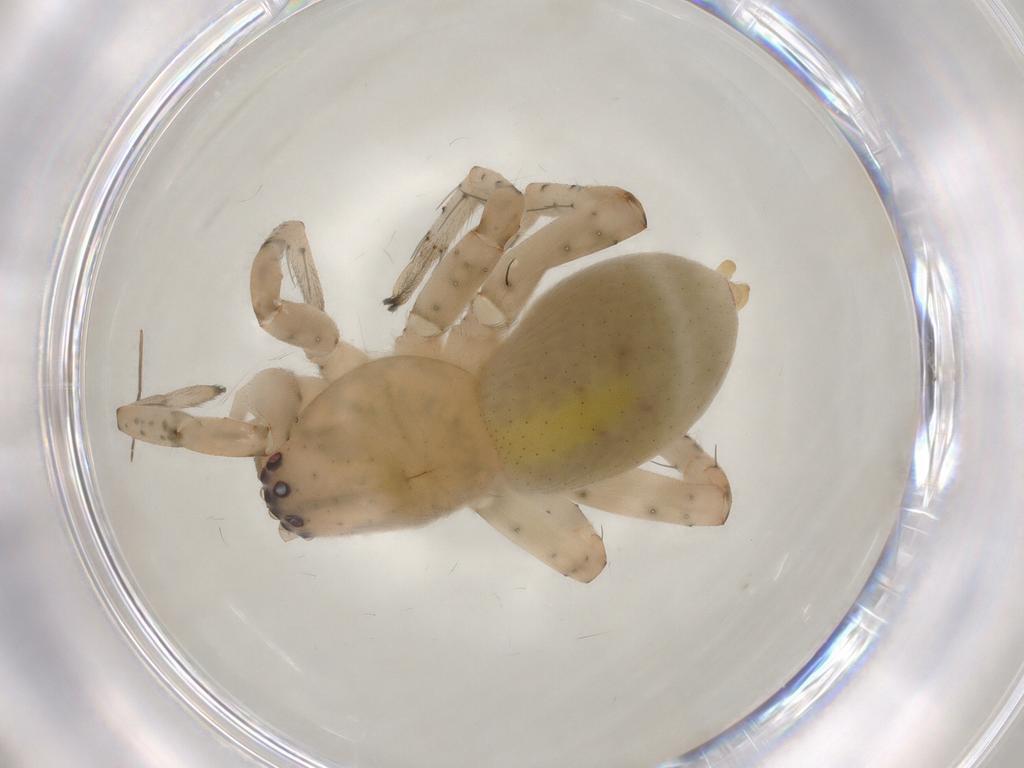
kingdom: Animalia
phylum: Arthropoda
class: Arachnida
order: Araneae
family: Clubionidae
